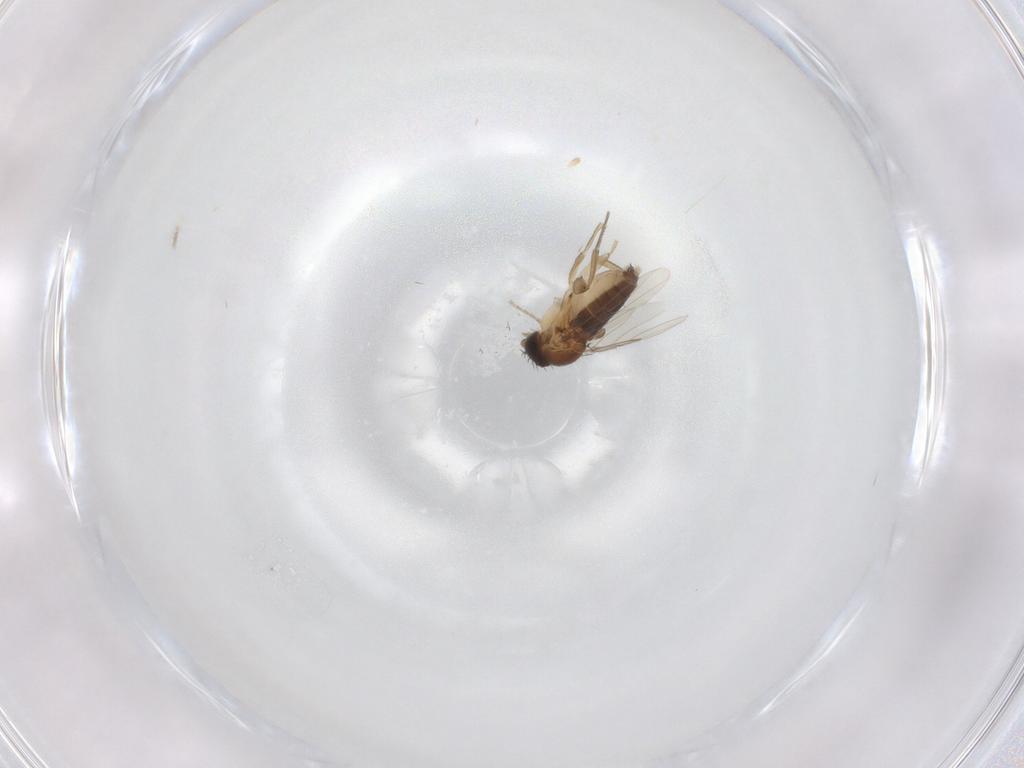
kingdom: Animalia
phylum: Arthropoda
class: Insecta
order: Diptera
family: Phoridae
